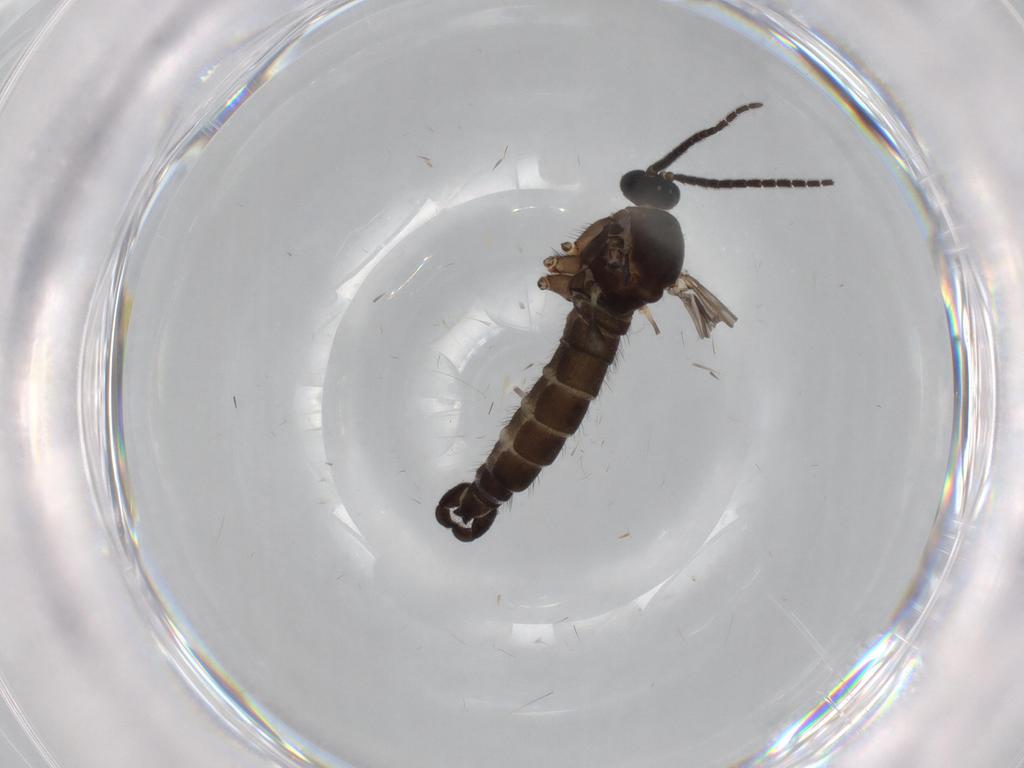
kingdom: Animalia
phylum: Arthropoda
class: Insecta
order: Diptera
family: Sciaridae
